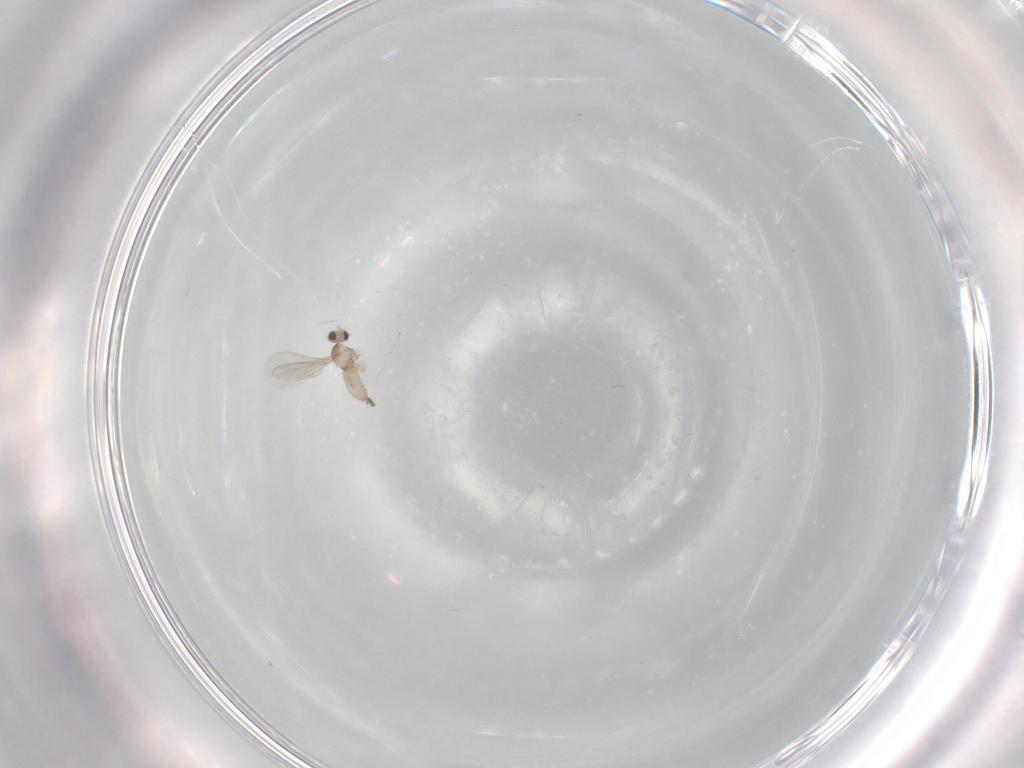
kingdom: Animalia
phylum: Arthropoda
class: Insecta
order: Diptera
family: Cecidomyiidae
